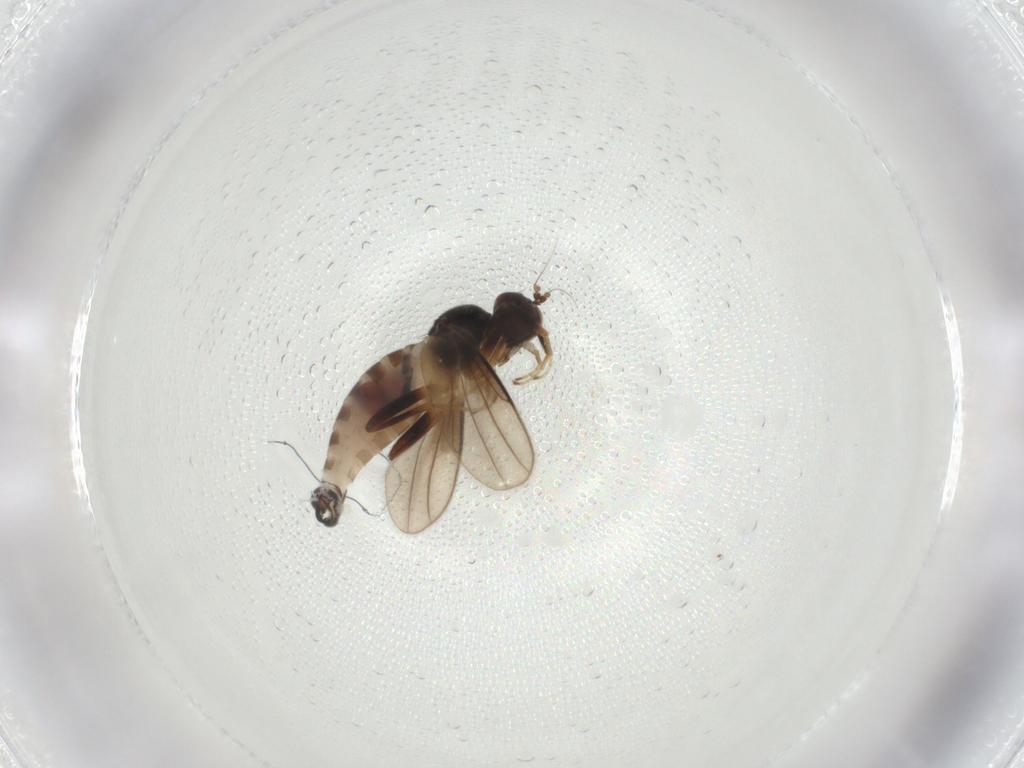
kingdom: Animalia
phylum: Arthropoda
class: Insecta
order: Diptera
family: Hybotidae
